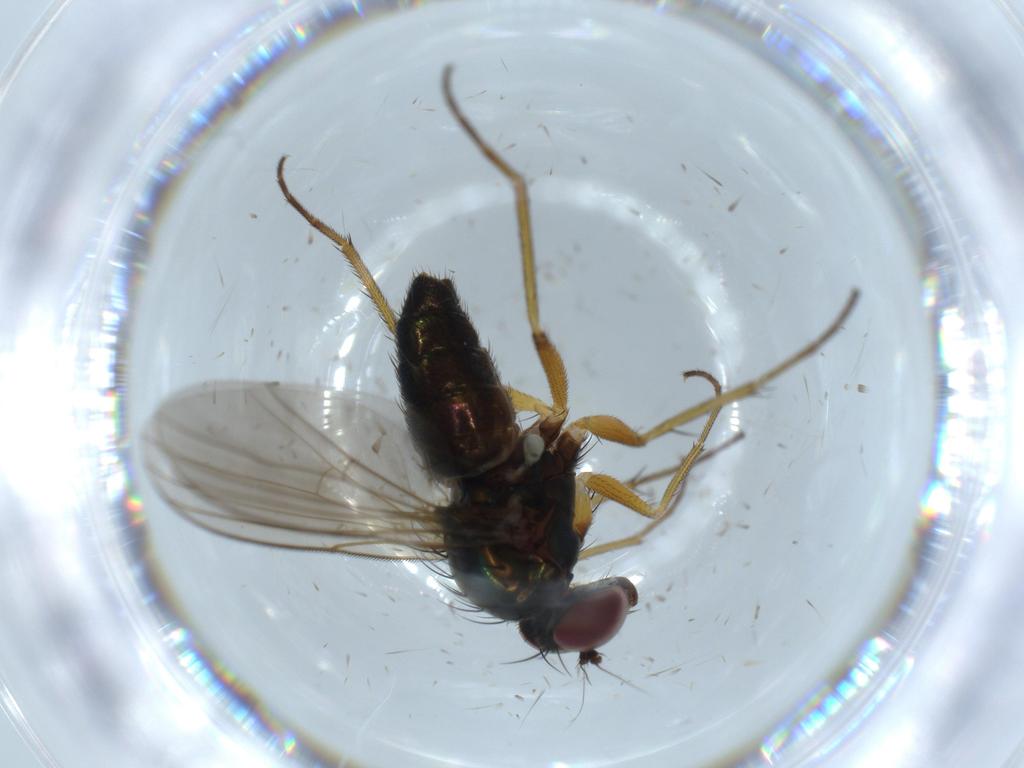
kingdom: Animalia
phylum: Arthropoda
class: Insecta
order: Diptera
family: Dolichopodidae
